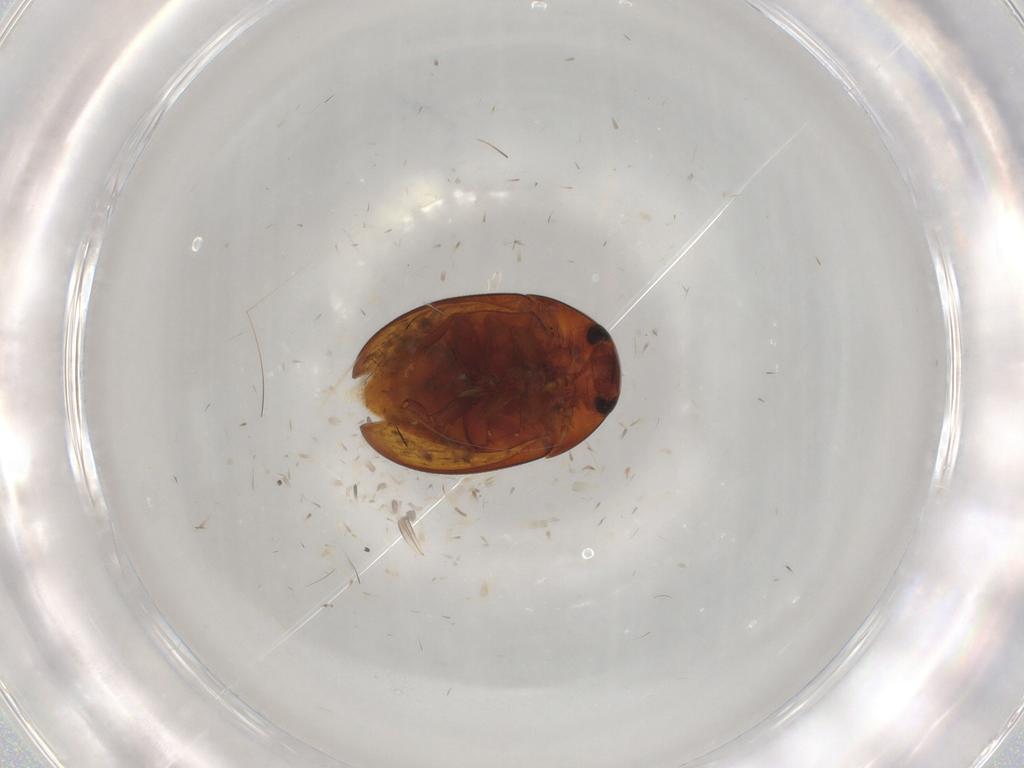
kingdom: Animalia
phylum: Arthropoda
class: Insecta
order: Coleoptera
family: Phalacridae
